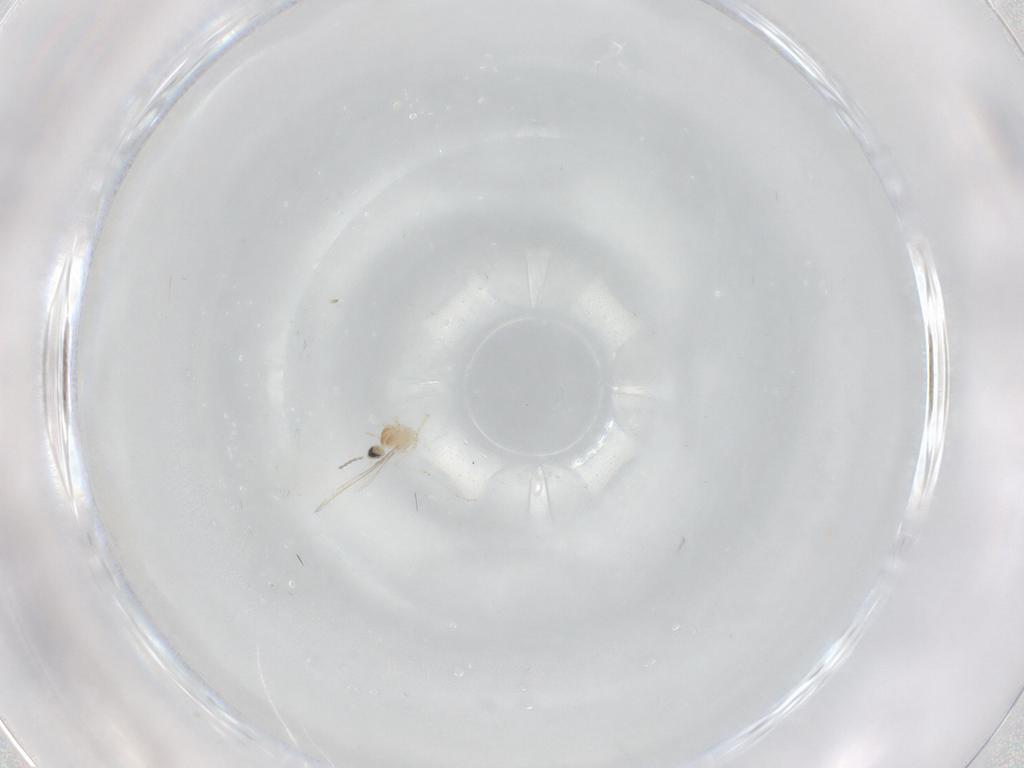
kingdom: Animalia
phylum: Arthropoda
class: Insecta
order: Diptera
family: Cecidomyiidae
